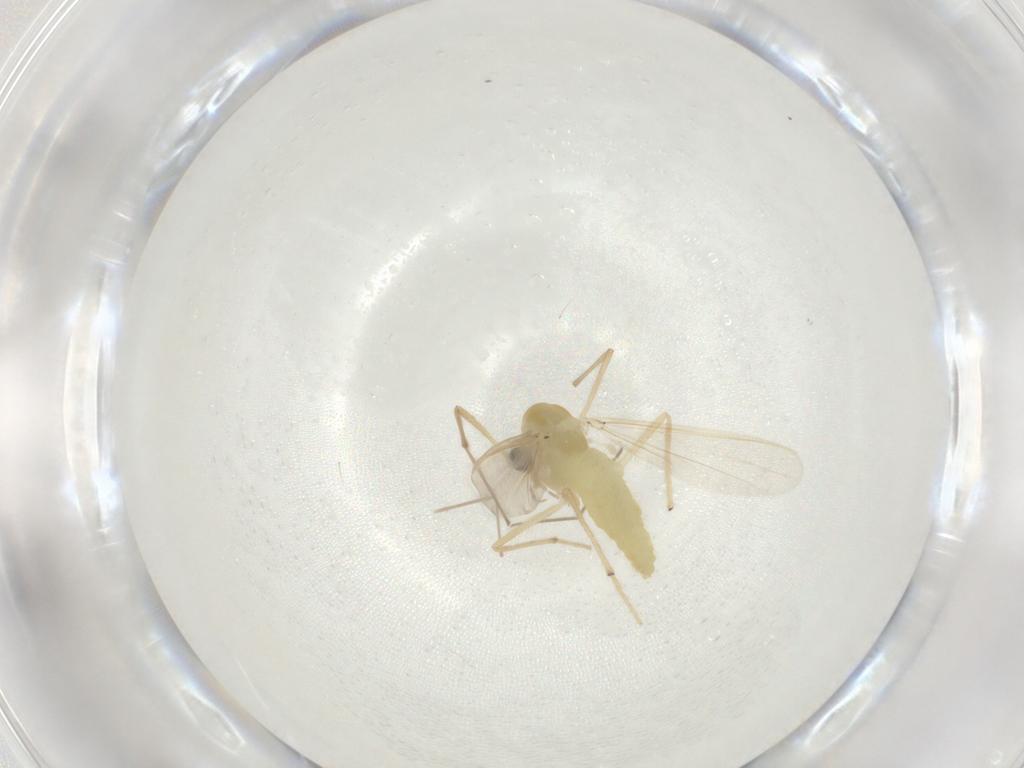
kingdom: Animalia
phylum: Arthropoda
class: Insecta
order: Diptera
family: Chironomidae
